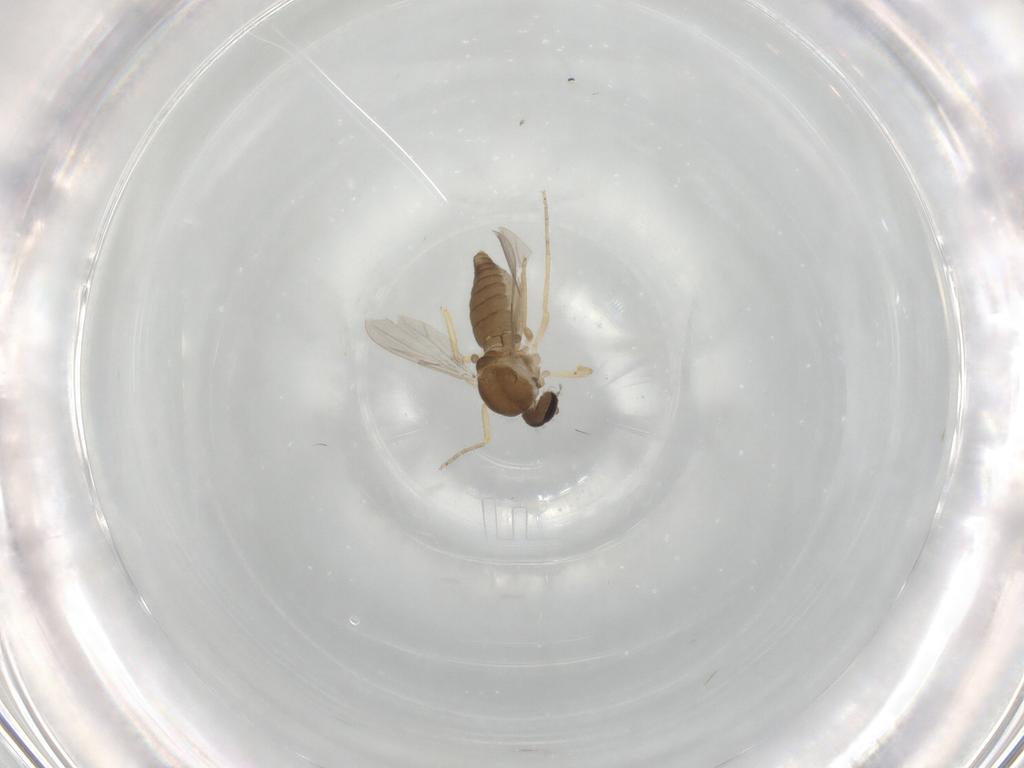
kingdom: Animalia
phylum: Arthropoda
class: Insecta
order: Diptera
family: Ceratopogonidae
